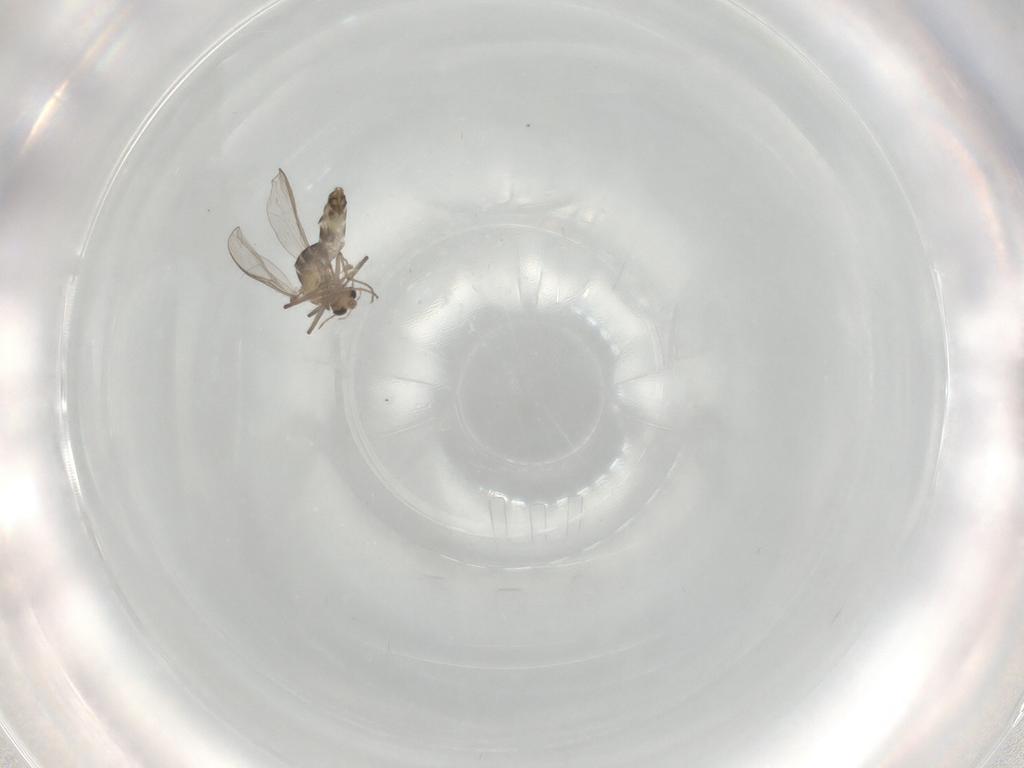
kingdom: Animalia
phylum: Arthropoda
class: Insecta
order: Diptera
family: Chironomidae
